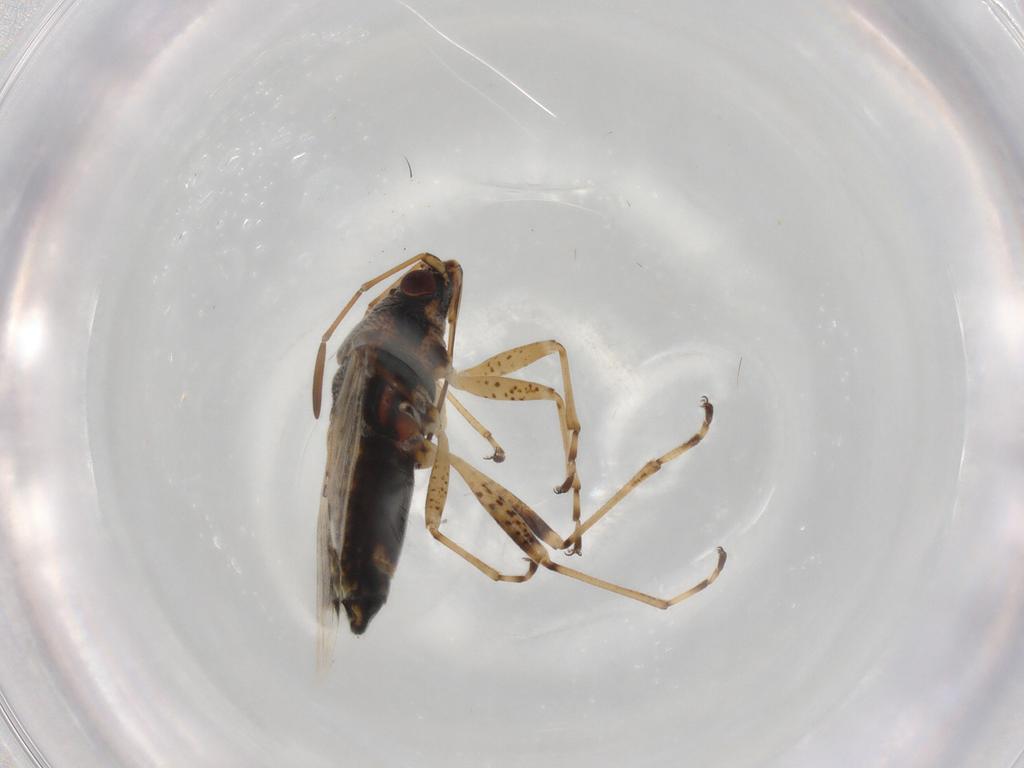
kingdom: Animalia
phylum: Arthropoda
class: Insecta
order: Hemiptera
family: Lygaeidae
